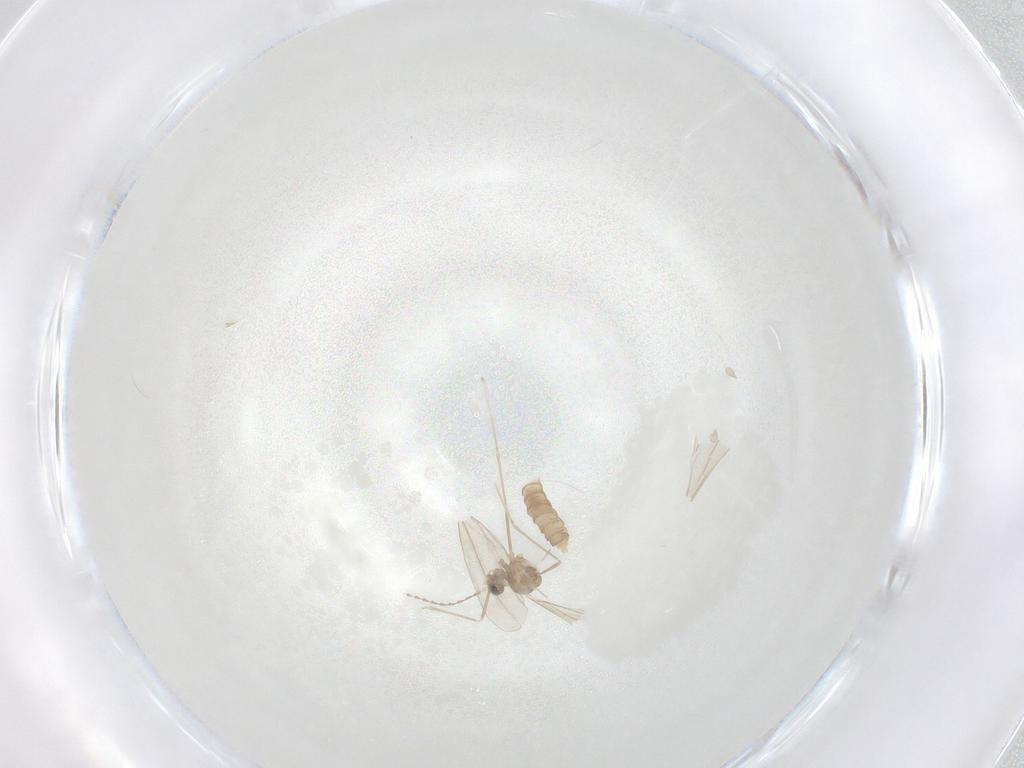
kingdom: Animalia
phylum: Arthropoda
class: Insecta
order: Diptera
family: Cecidomyiidae
